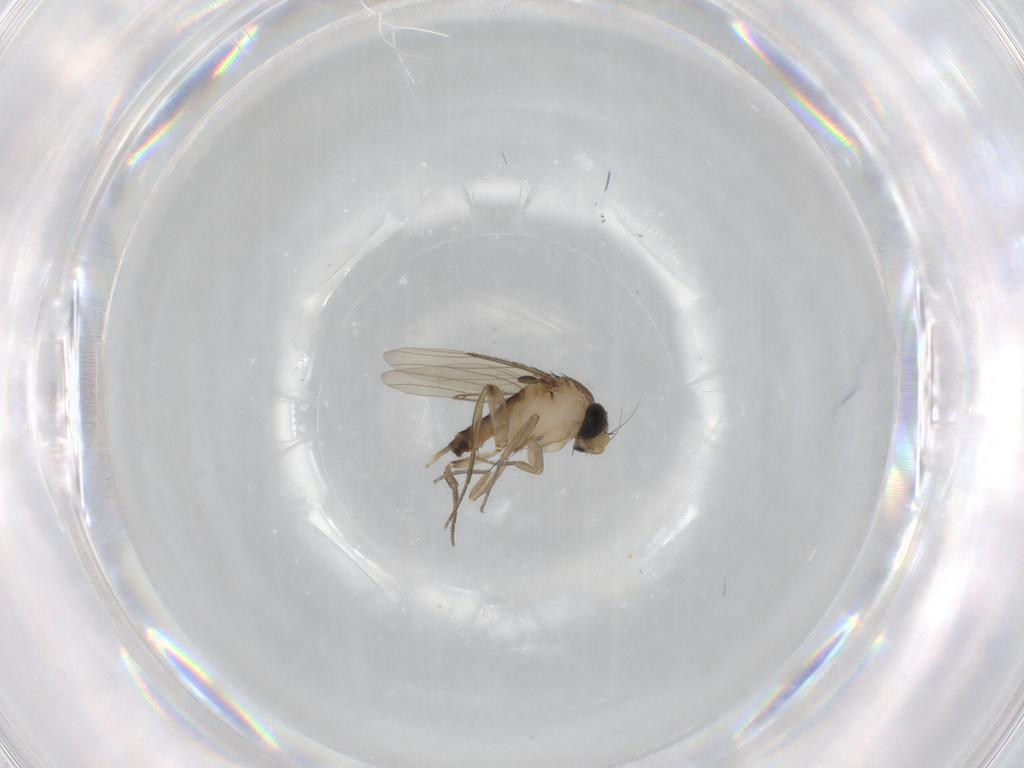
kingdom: Animalia
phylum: Arthropoda
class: Insecta
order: Diptera
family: Phoridae
